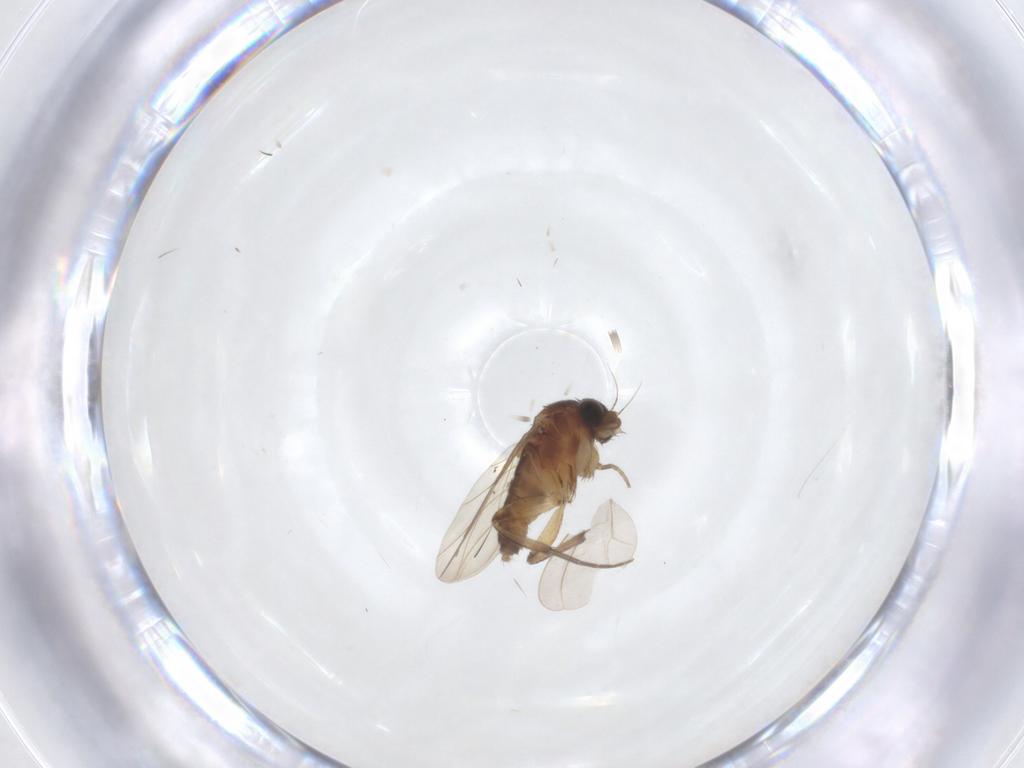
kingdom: Animalia
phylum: Arthropoda
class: Insecta
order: Diptera
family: Phoridae
